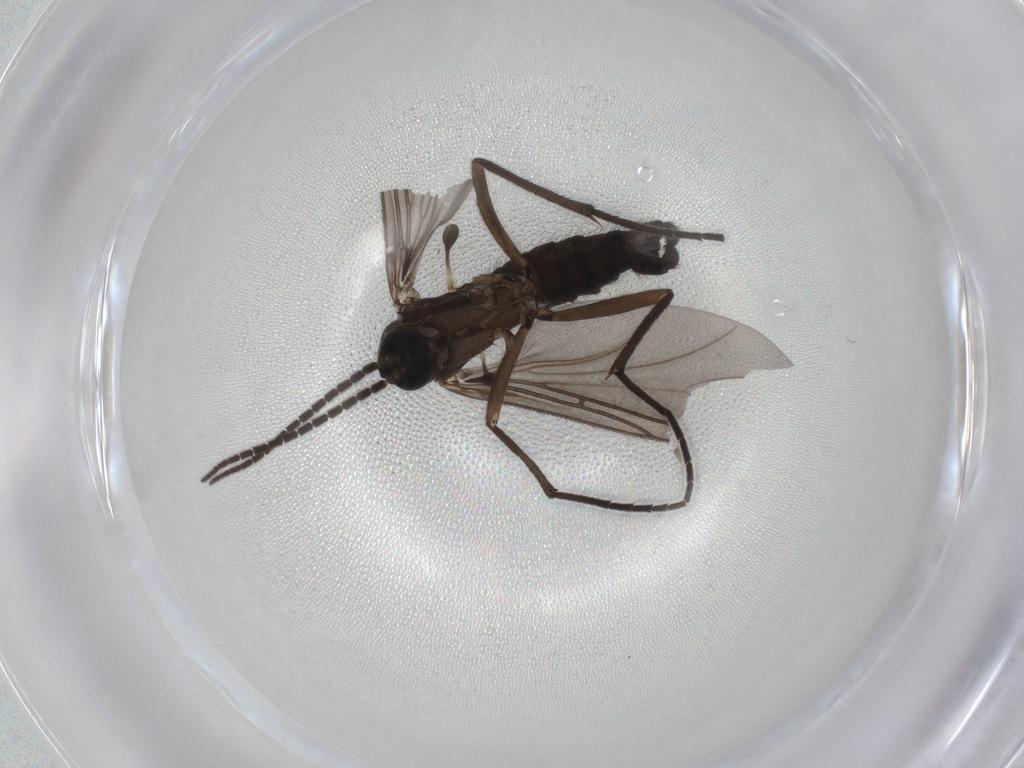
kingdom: Animalia
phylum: Arthropoda
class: Insecta
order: Diptera
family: Sciaridae
